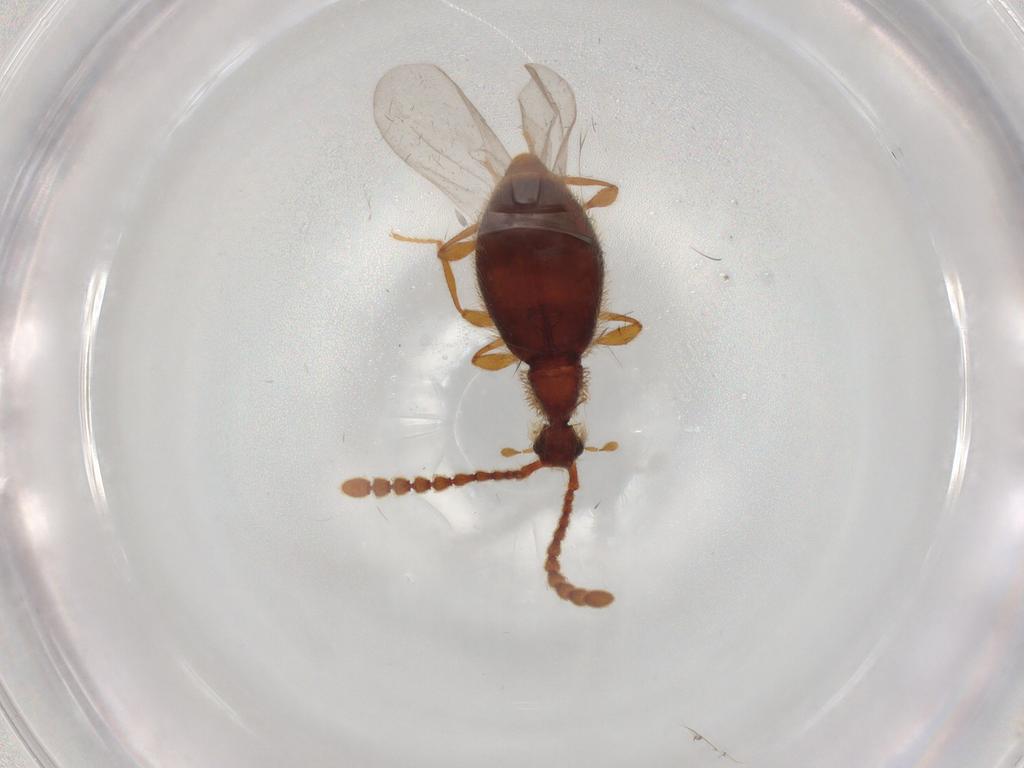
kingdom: Animalia
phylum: Arthropoda
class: Insecta
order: Coleoptera
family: Staphylinidae
